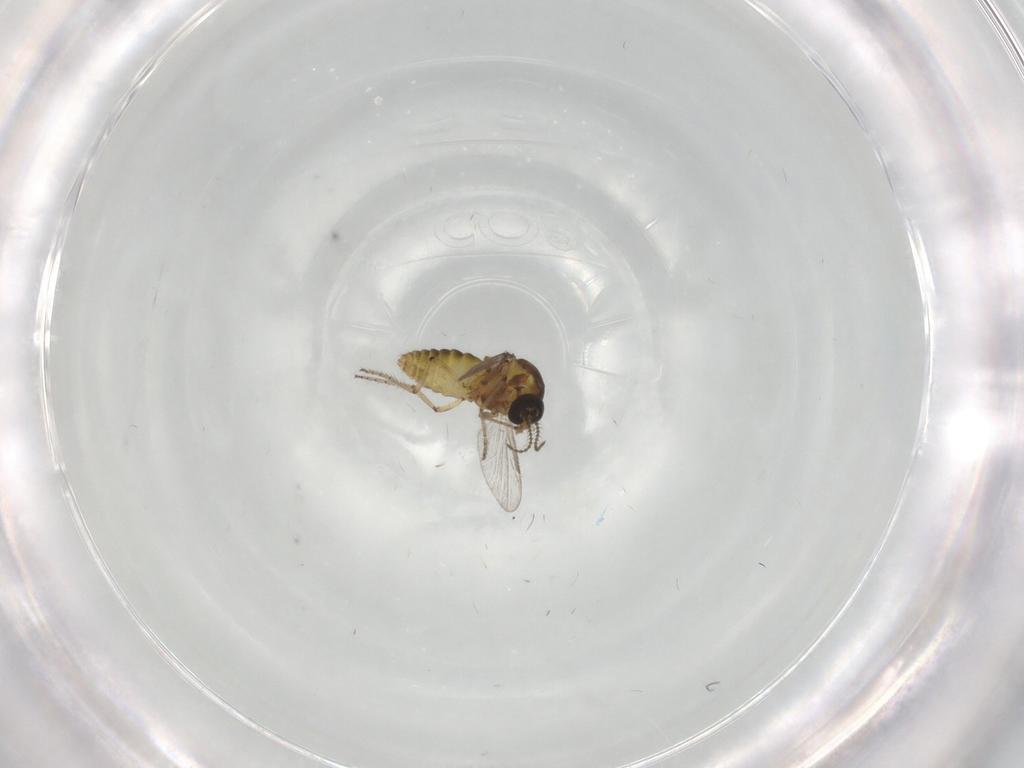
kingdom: Animalia
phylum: Arthropoda
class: Insecta
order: Diptera
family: Ceratopogonidae
